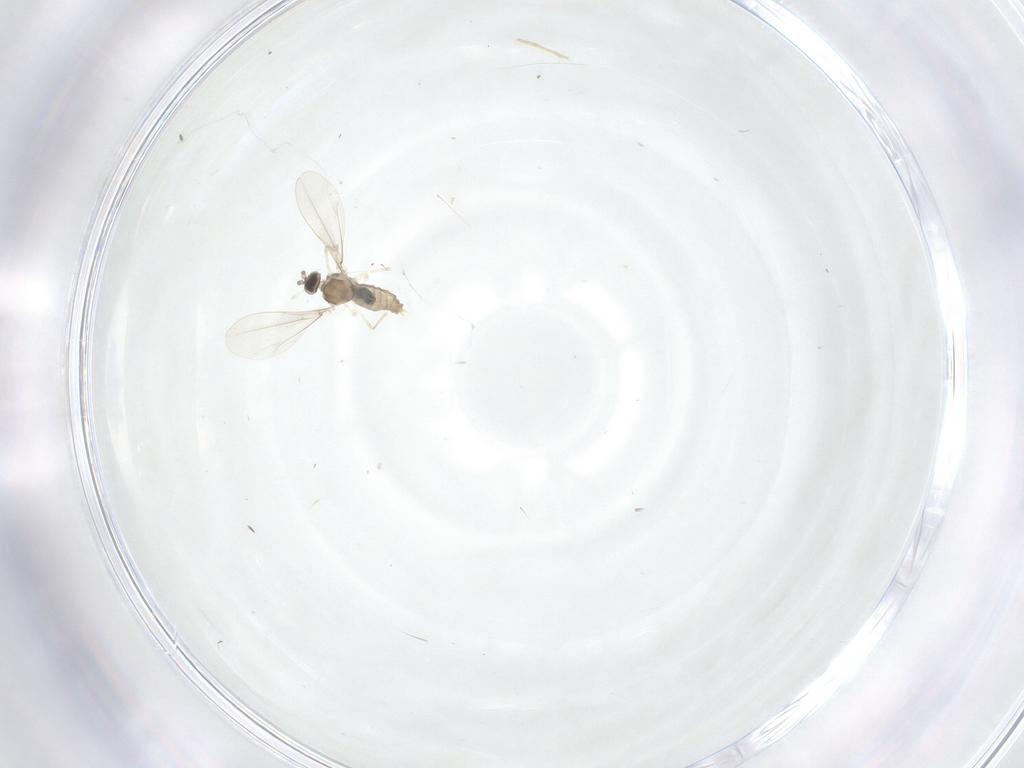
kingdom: Animalia
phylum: Arthropoda
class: Insecta
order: Diptera
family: Cecidomyiidae
